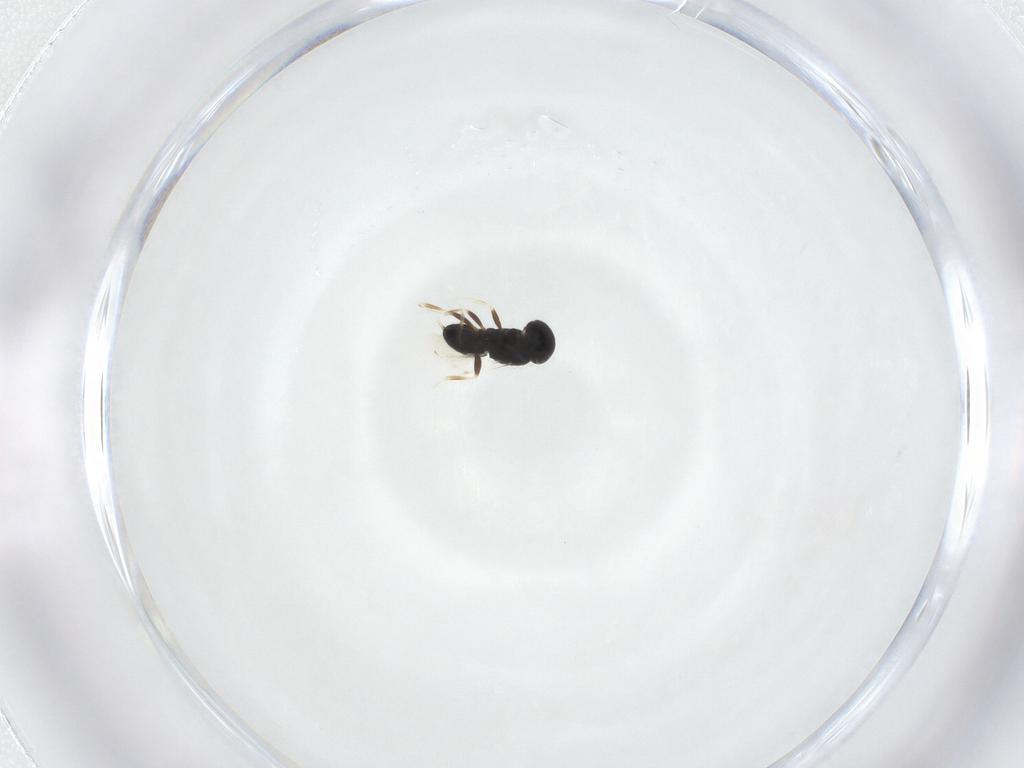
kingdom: Animalia
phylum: Arthropoda
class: Insecta
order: Hymenoptera
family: Scelionidae
